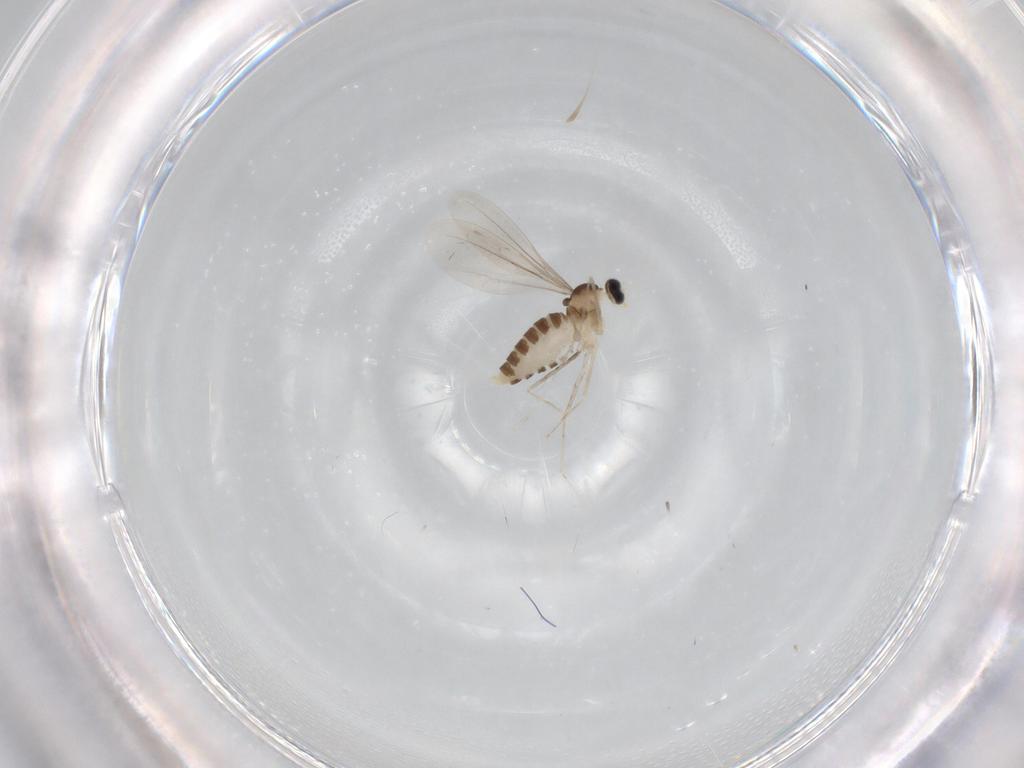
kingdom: Animalia
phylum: Arthropoda
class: Insecta
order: Diptera
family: Cecidomyiidae
